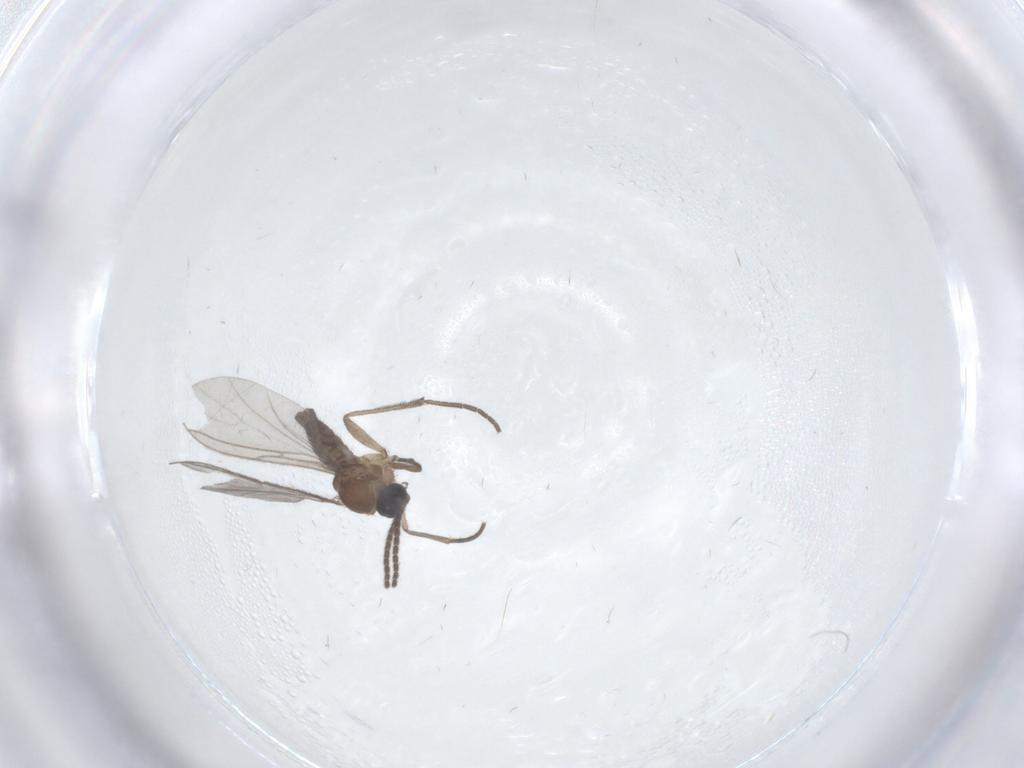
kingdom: Animalia
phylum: Arthropoda
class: Insecta
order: Diptera
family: Sciaridae
